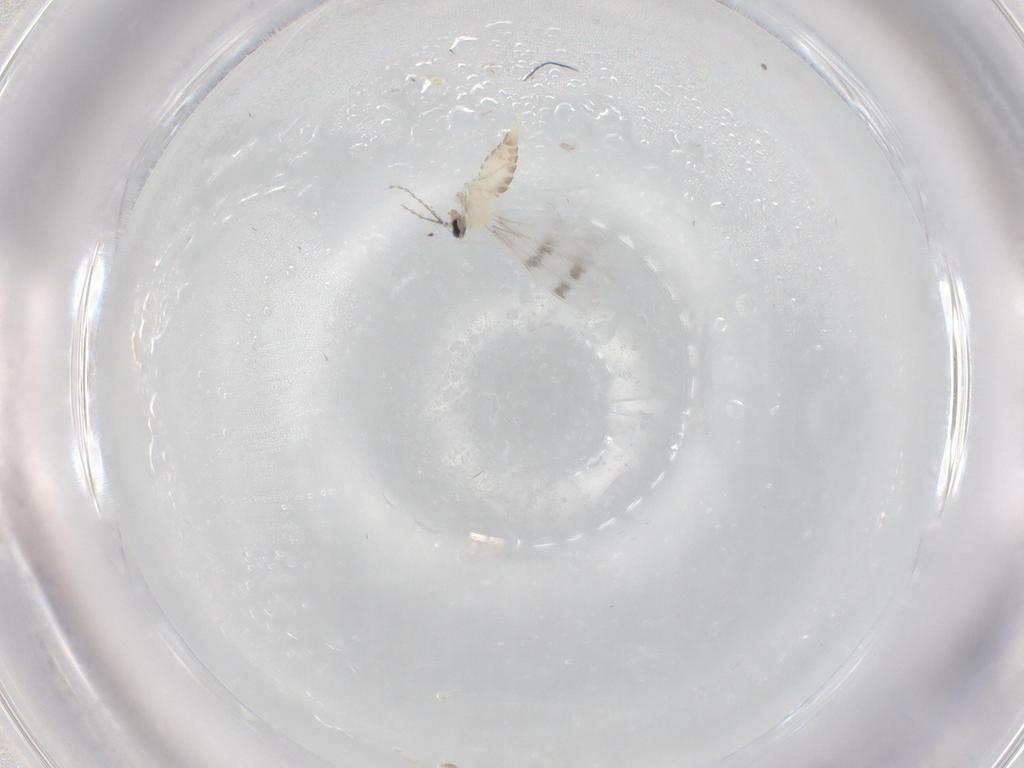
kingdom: Animalia
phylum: Arthropoda
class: Insecta
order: Diptera
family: Cecidomyiidae
